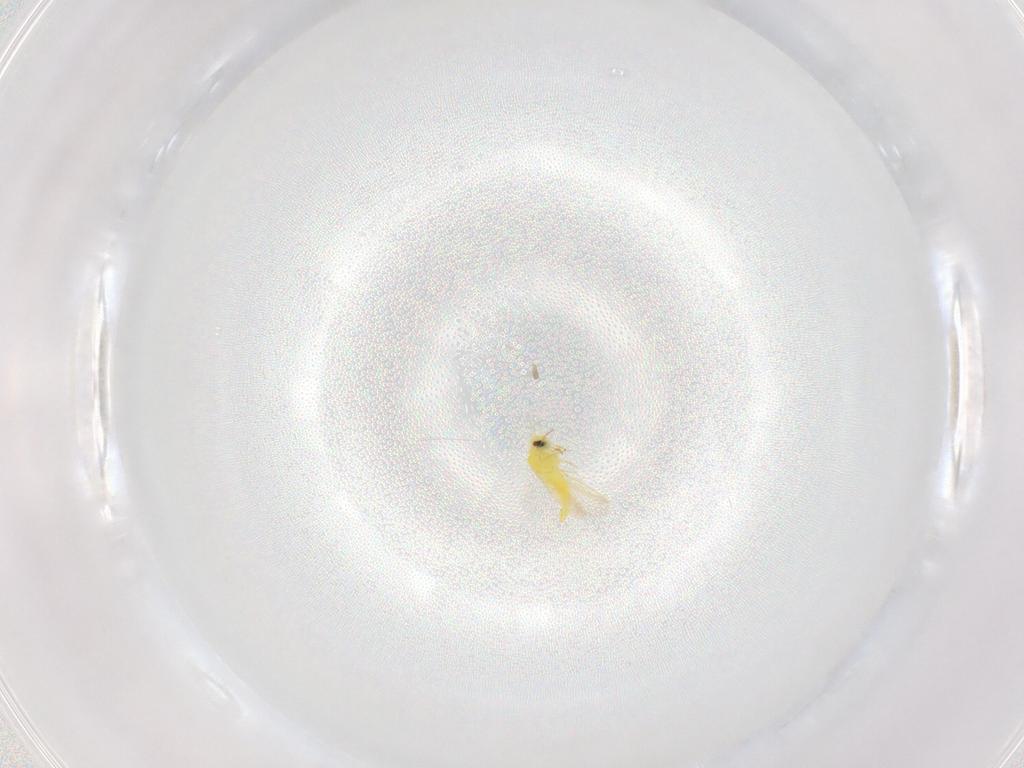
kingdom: Animalia
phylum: Arthropoda
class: Insecta
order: Hemiptera
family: Aleyrodidae
